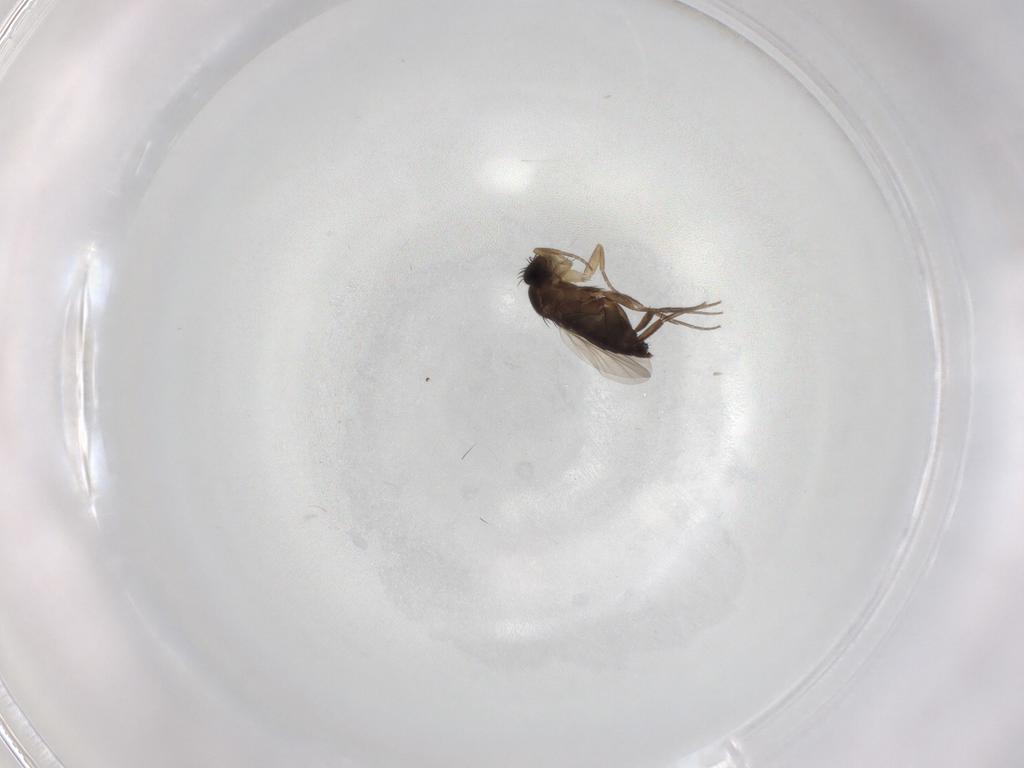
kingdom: Animalia
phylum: Arthropoda
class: Insecta
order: Diptera
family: Phoridae
